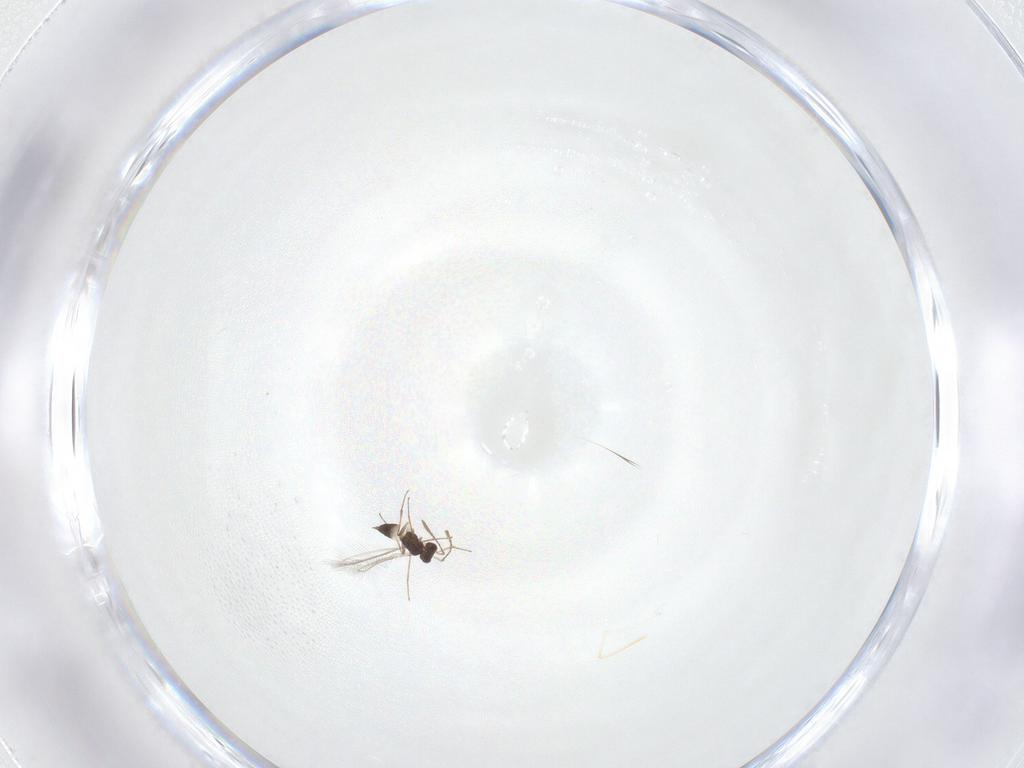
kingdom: Animalia
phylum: Arthropoda
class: Insecta
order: Hymenoptera
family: Mymaridae
